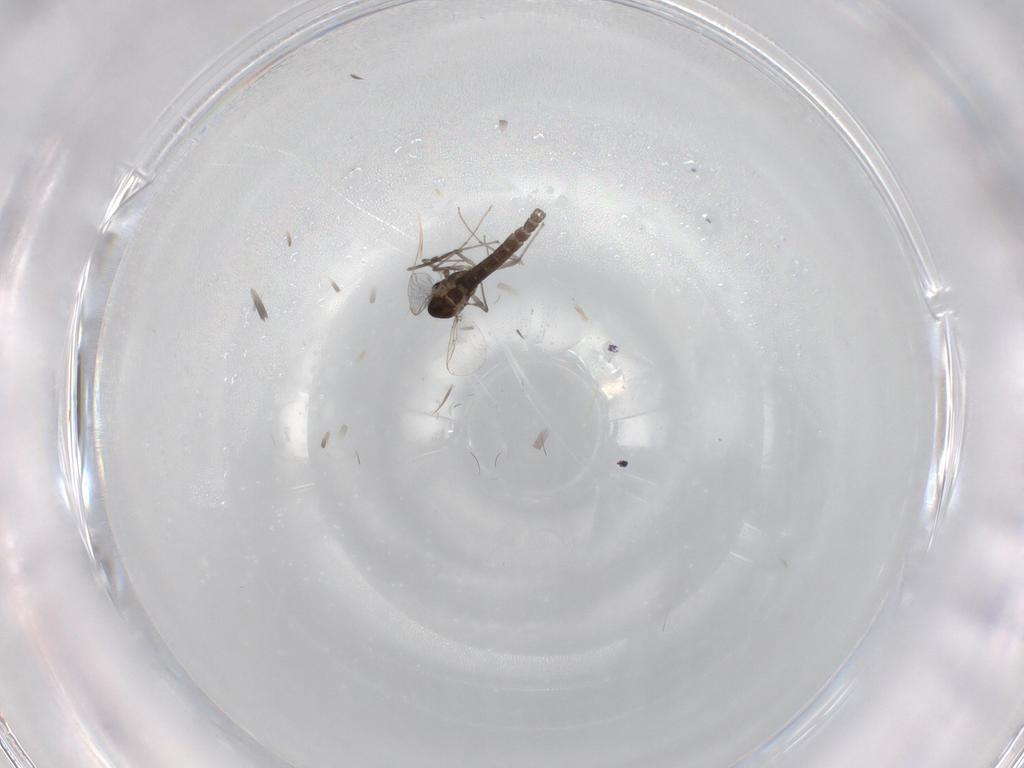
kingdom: Animalia
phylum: Arthropoda
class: Insecta
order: Diptera
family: Chironomidae
